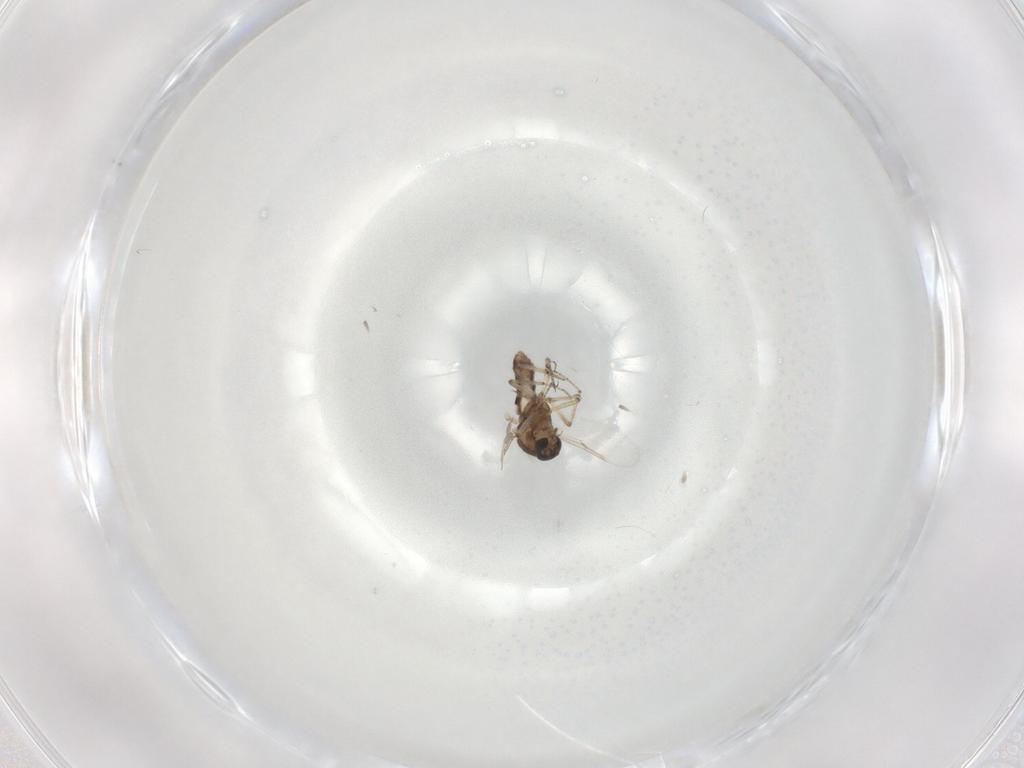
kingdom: Animalia
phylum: Arthropoda
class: Insecta
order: Diptera
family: Ceratopogonidae
